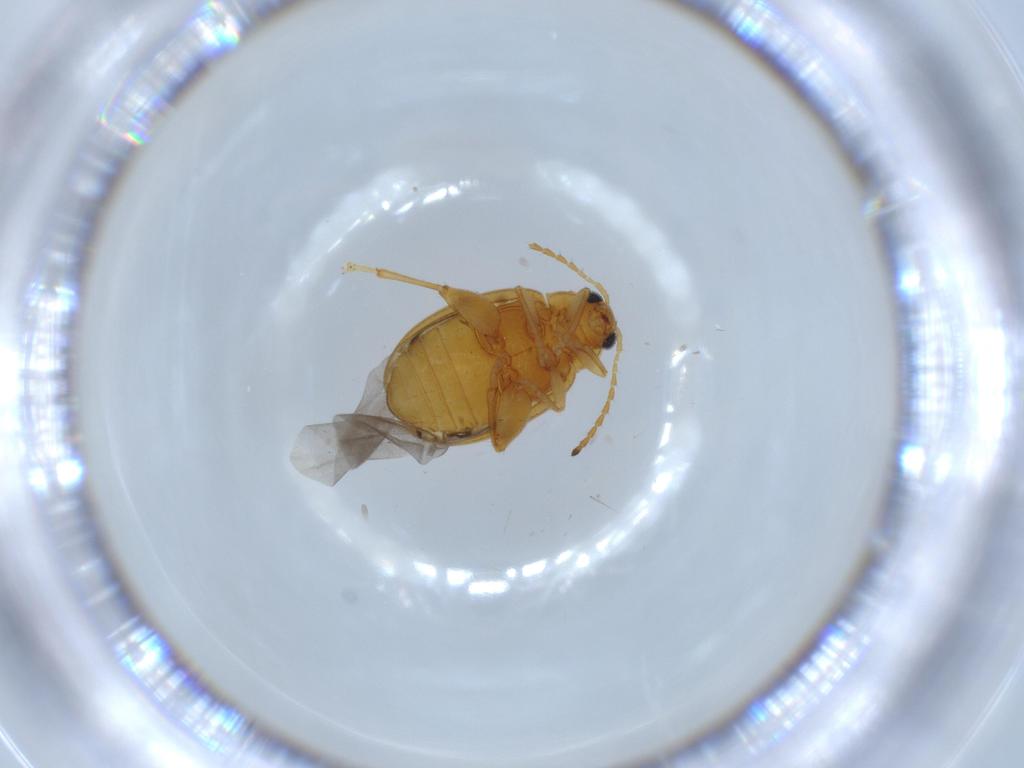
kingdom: Animalia
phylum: Arthropoda
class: Insecta
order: Coleoptera
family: Chrysomelidae
